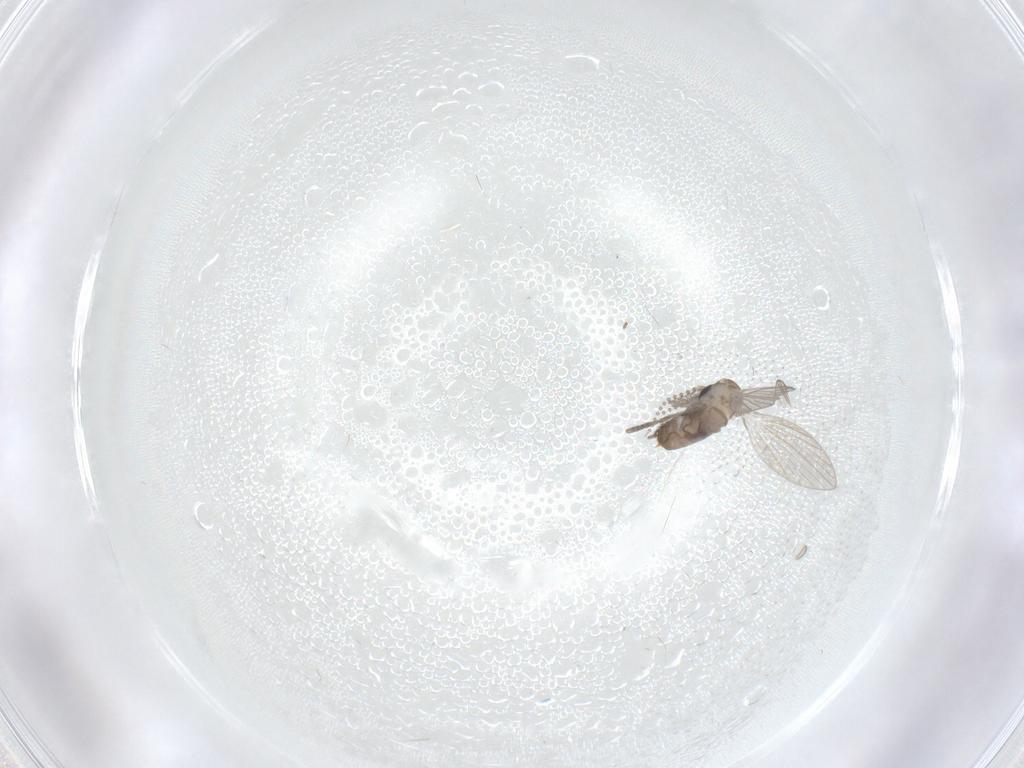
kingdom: Animalia
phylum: Arthropoda
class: Insecta
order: Diptera
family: Psychodidae
